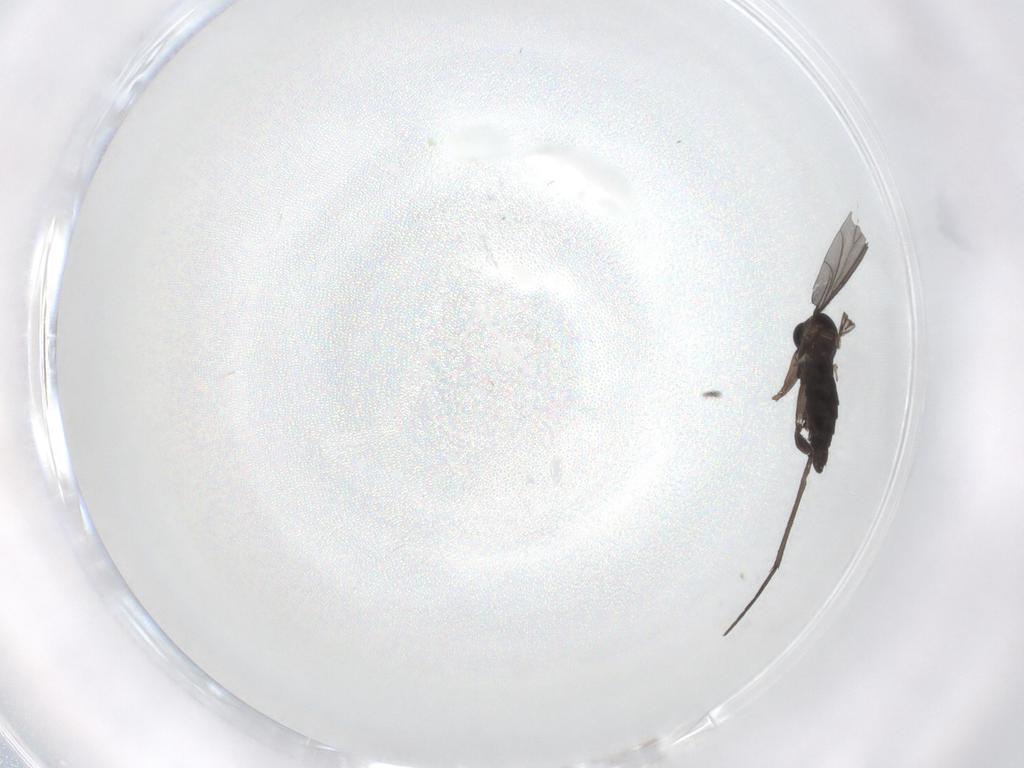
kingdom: Animalia
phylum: Arthropoda
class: Insecta
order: Diptera
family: Sciaridae
